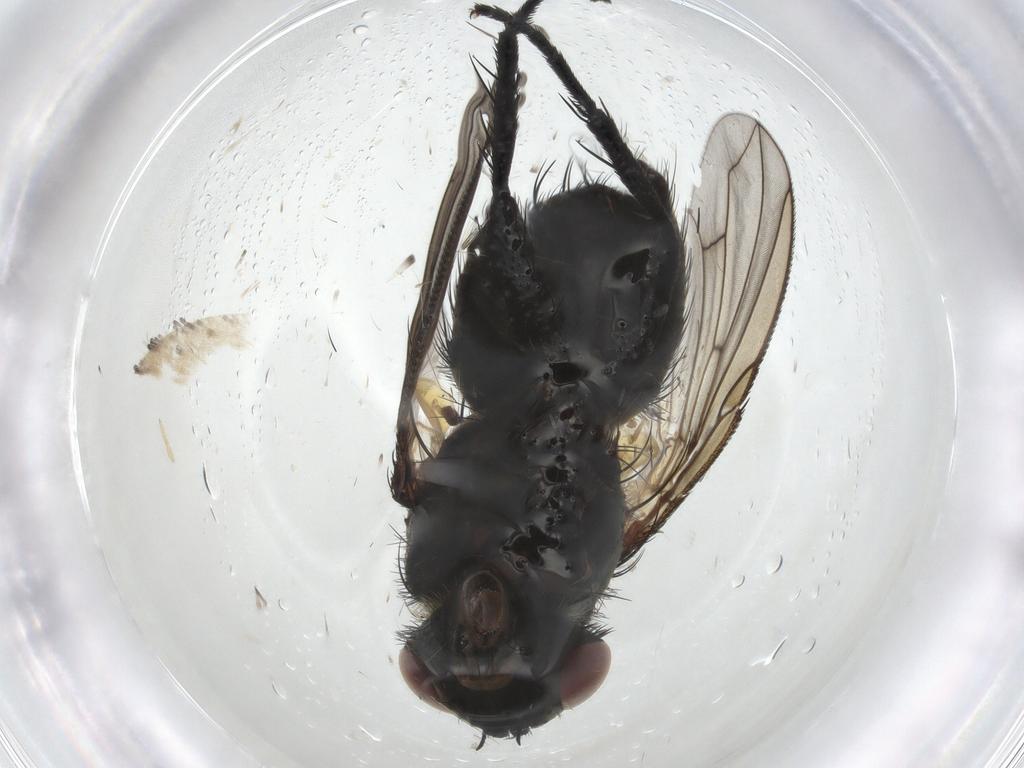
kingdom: Animalia
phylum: Arthropoda
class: Insecta
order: Diptera
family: Tachinidae
